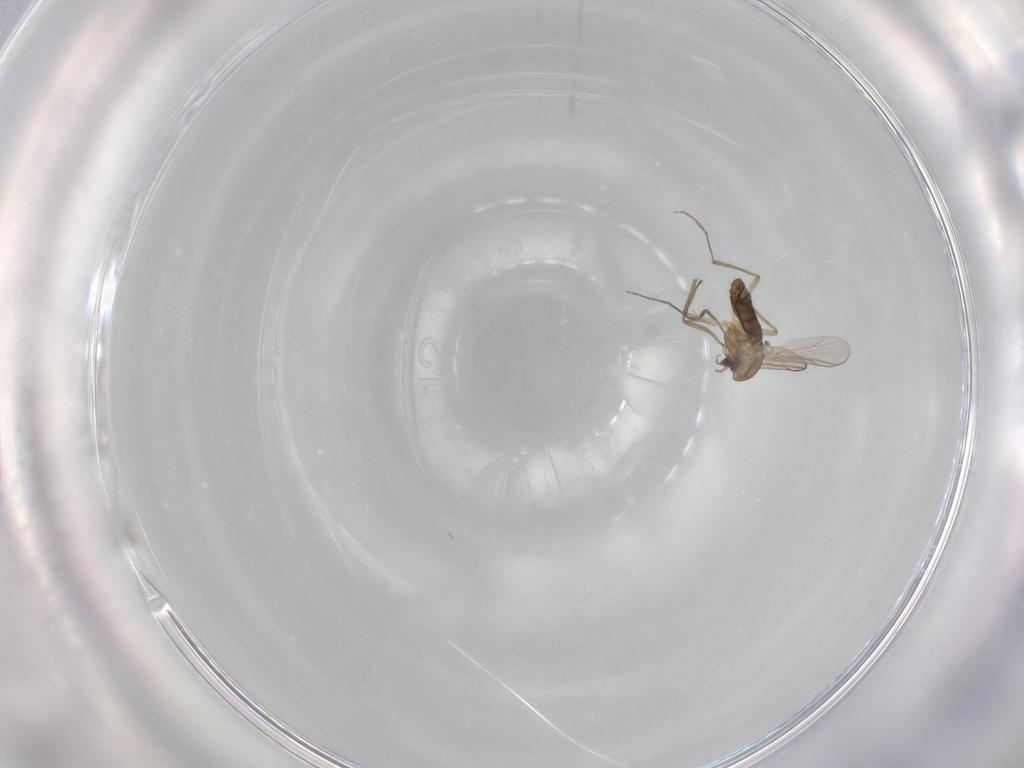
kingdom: Animalia
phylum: Arthropoda
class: Insecta
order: Diptera
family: Chironomidae
